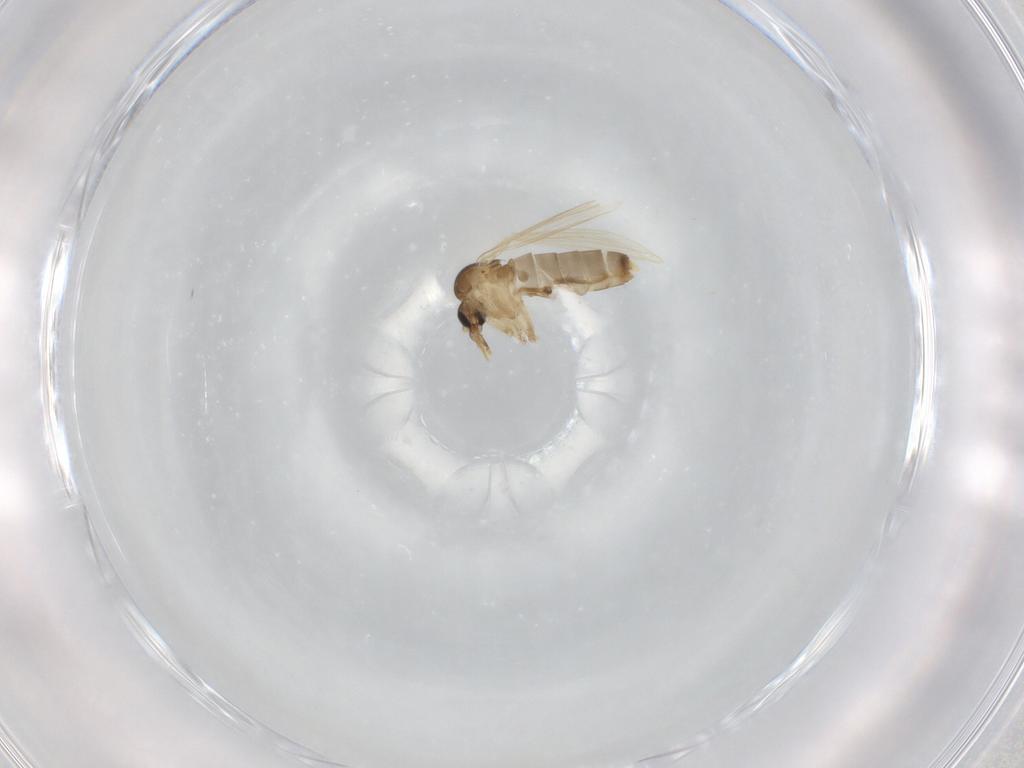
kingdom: Animalia
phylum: Arthropoda
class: Insecta
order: Diptera
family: Psychodidae
